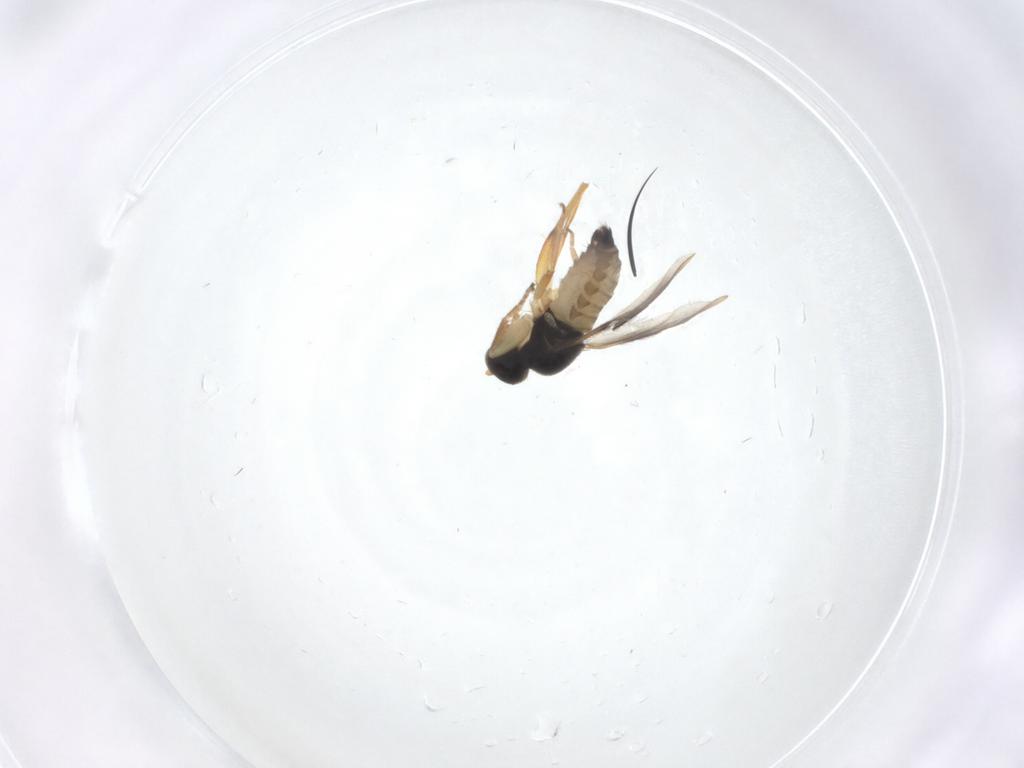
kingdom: Animalia
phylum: Arthropoda
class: Insecta
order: Diptera
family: Hybotidae
